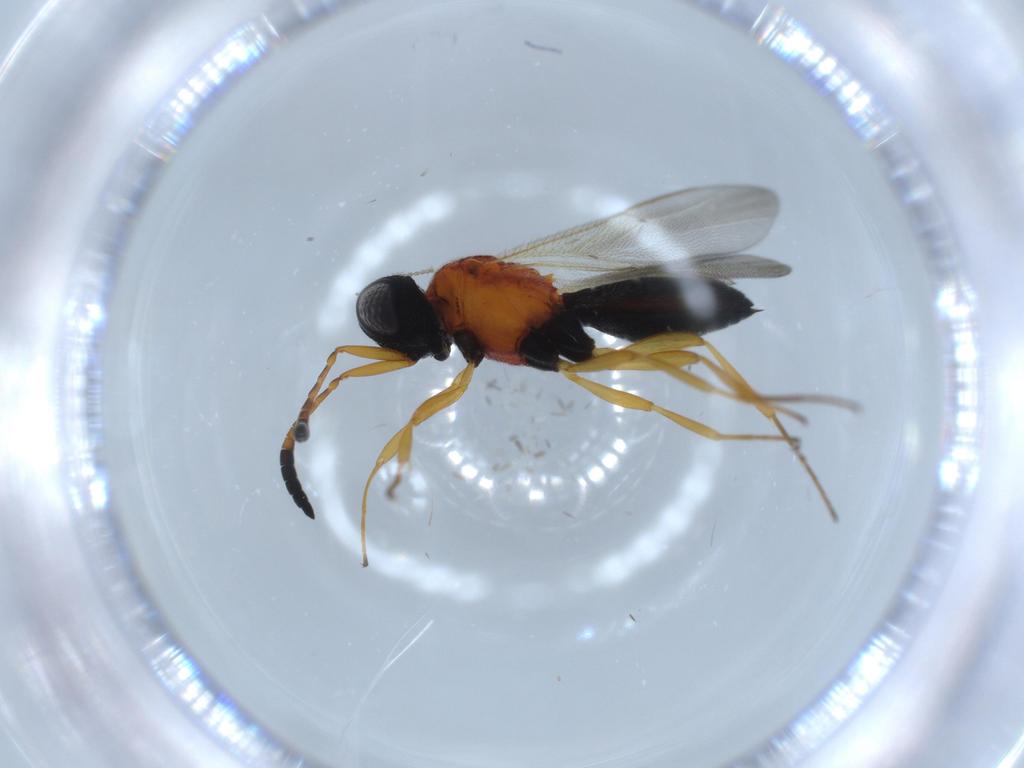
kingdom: Animalia
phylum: Arthropoda
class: Insecta
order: Hymenoptera
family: Scelionidae
